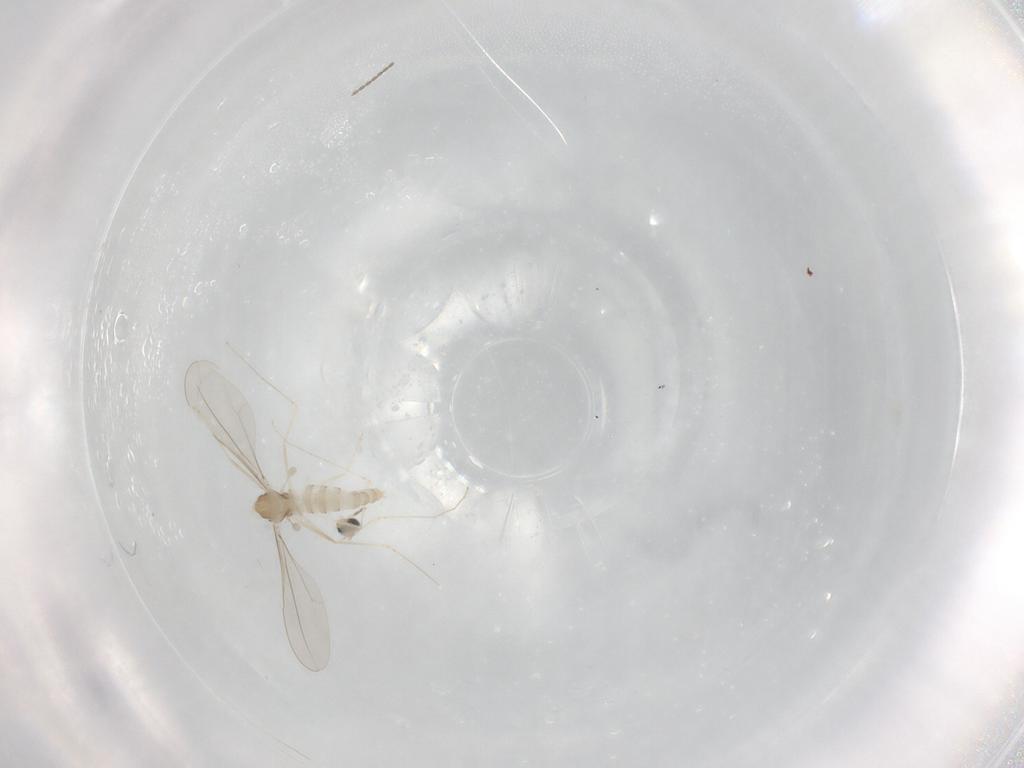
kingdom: Animalia
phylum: Arthropoda
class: Insecta
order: Diptera
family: Cecidomyiidae
